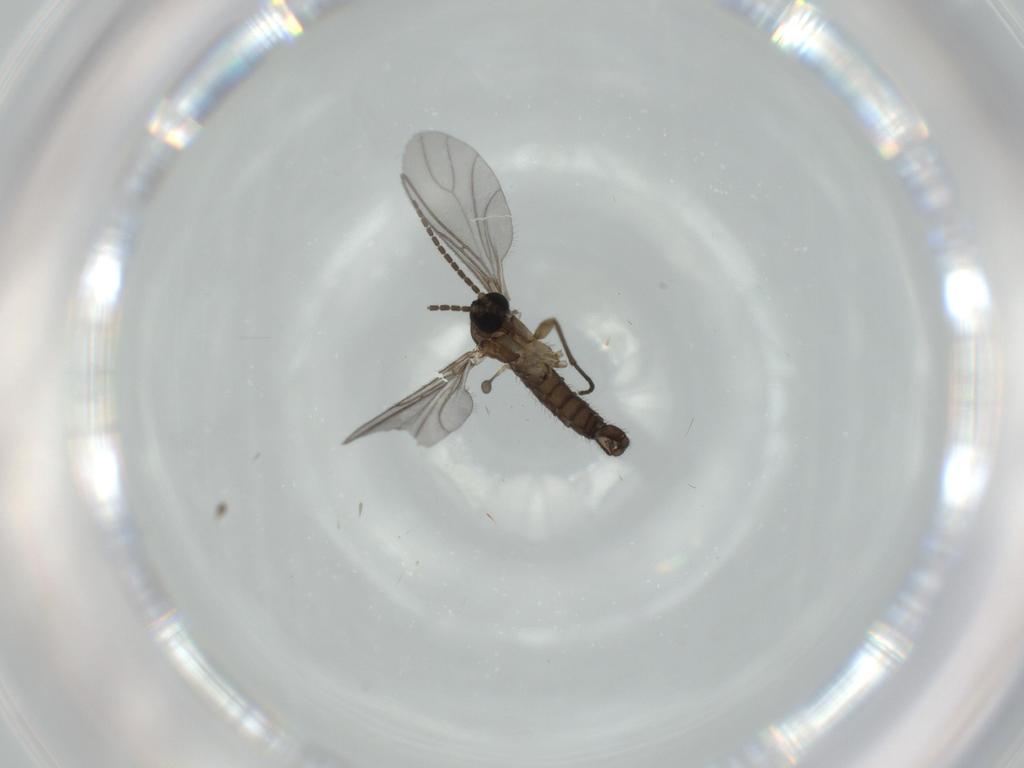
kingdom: Animalia
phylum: Arthropoda
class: Insecta
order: Diptera
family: Sciaridae
